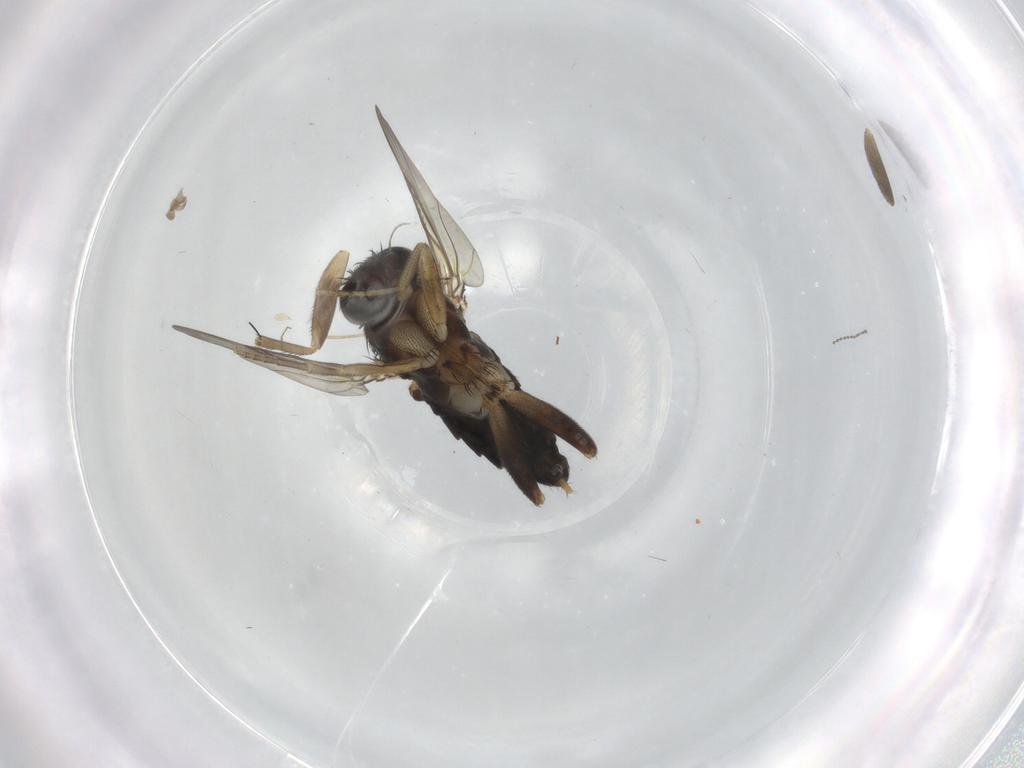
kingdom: Animalia
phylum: Arthropoda
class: Insecta
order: Diptera
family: Phoridae
